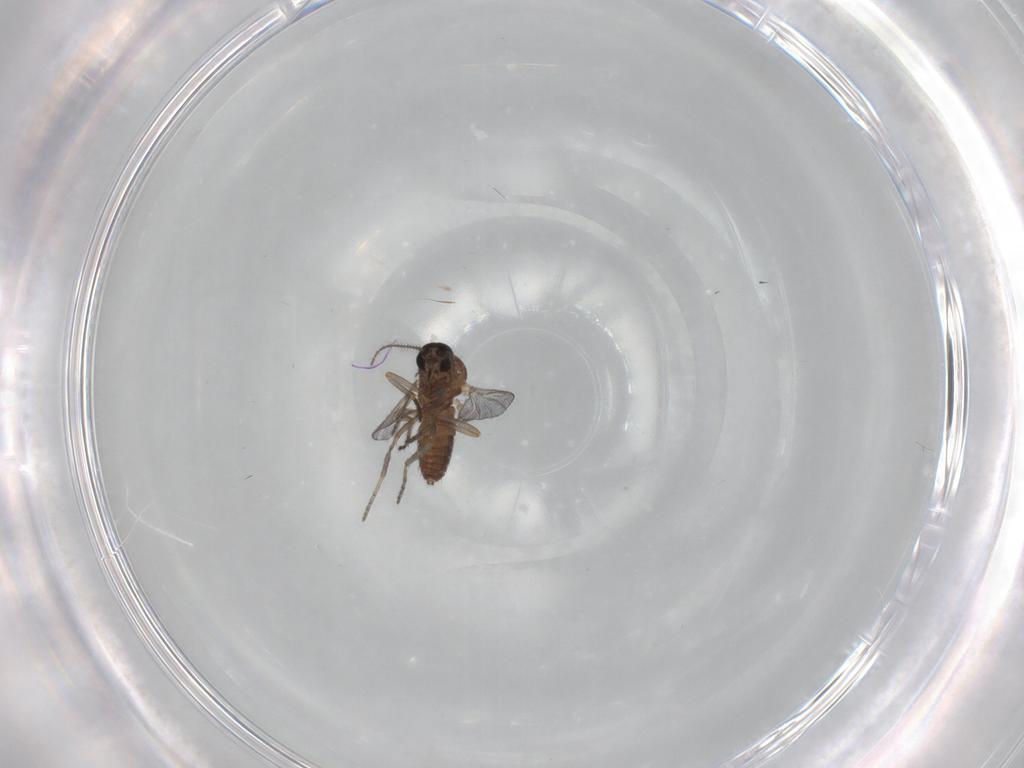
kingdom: Animalia
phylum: Arthropoda
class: Insecta
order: Diptera
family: Ceratopogonidae
